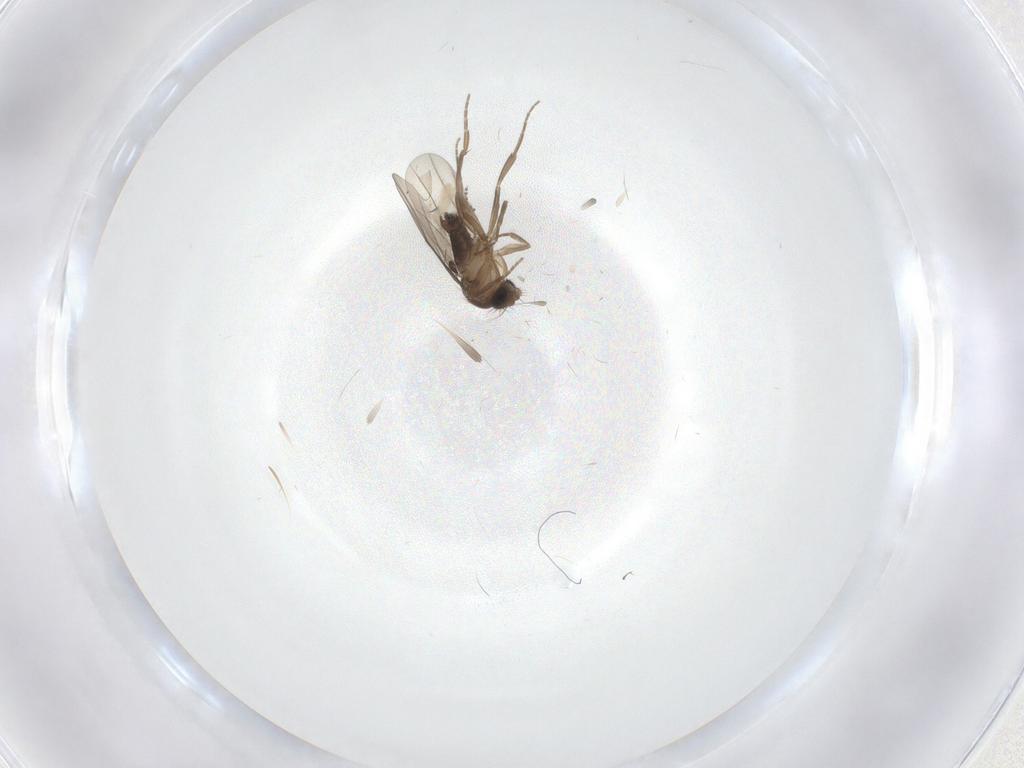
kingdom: Animalia
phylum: Arthropoda
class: Insecta
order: Diptera
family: Phoridae
